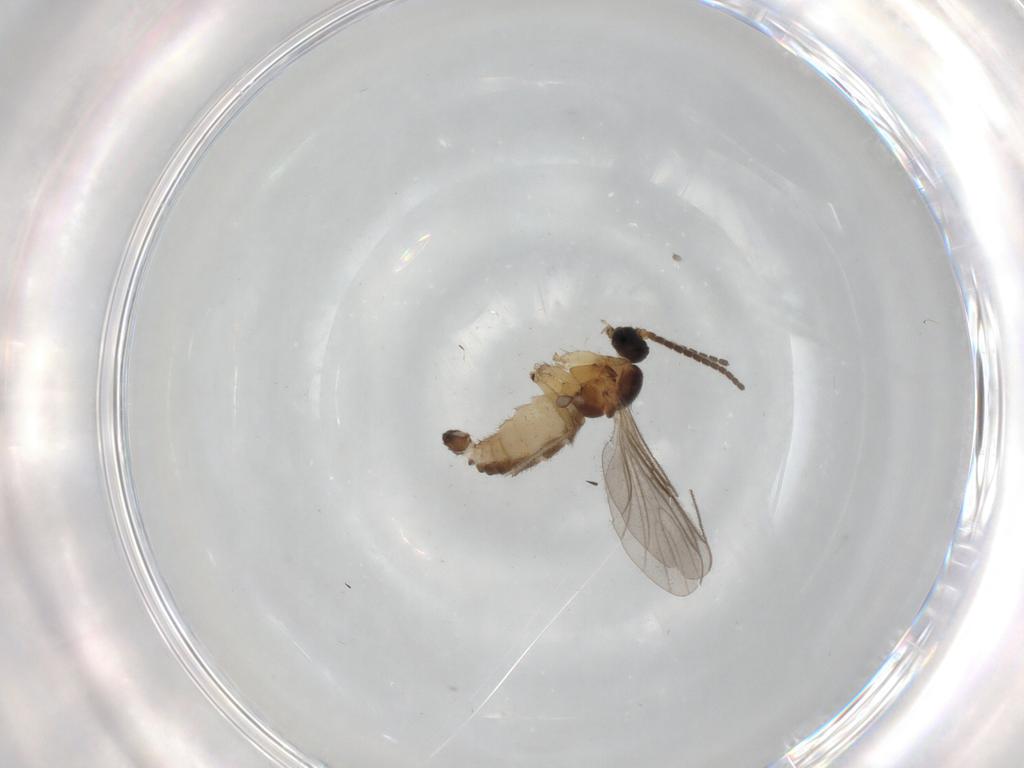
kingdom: Animalia
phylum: Arthropoda
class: Insecta
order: Diptera
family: Sciaridae
